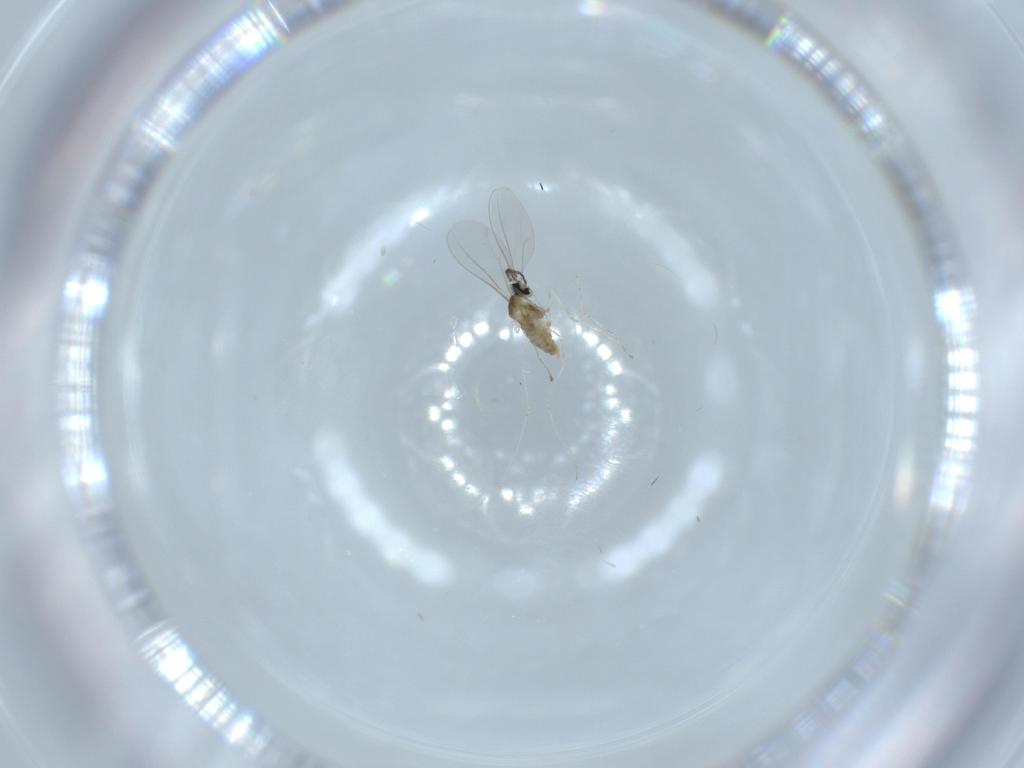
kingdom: Animalia
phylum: Arthropoda
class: Insecta
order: Diptera
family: Cecidomyiidae
